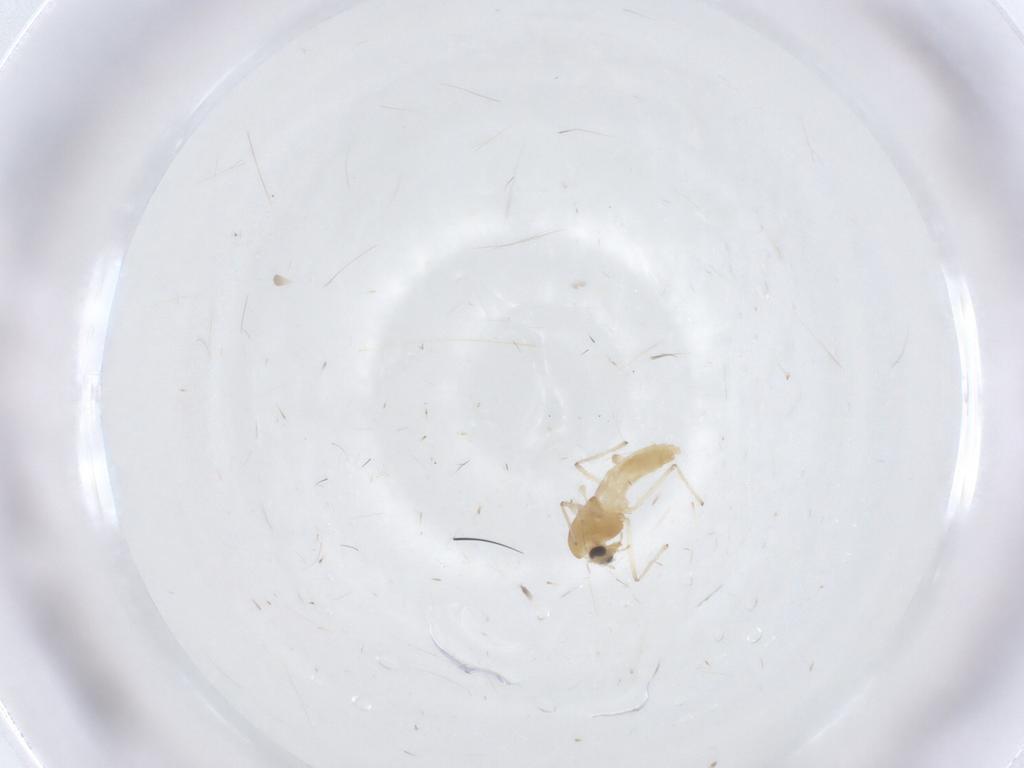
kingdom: Animalia
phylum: Arthropoda
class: Insecta
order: Diptera
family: Chironomidae
